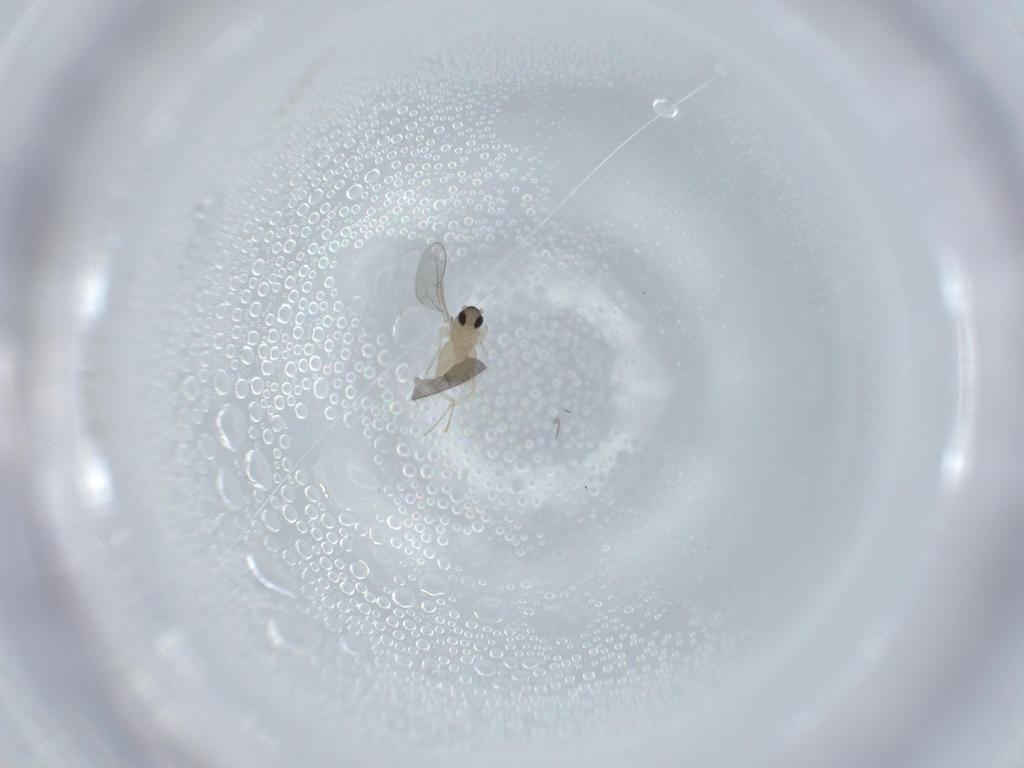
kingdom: Animalia
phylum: Arthropoda
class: Insecta
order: Diptera
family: Cecidomyiidae
